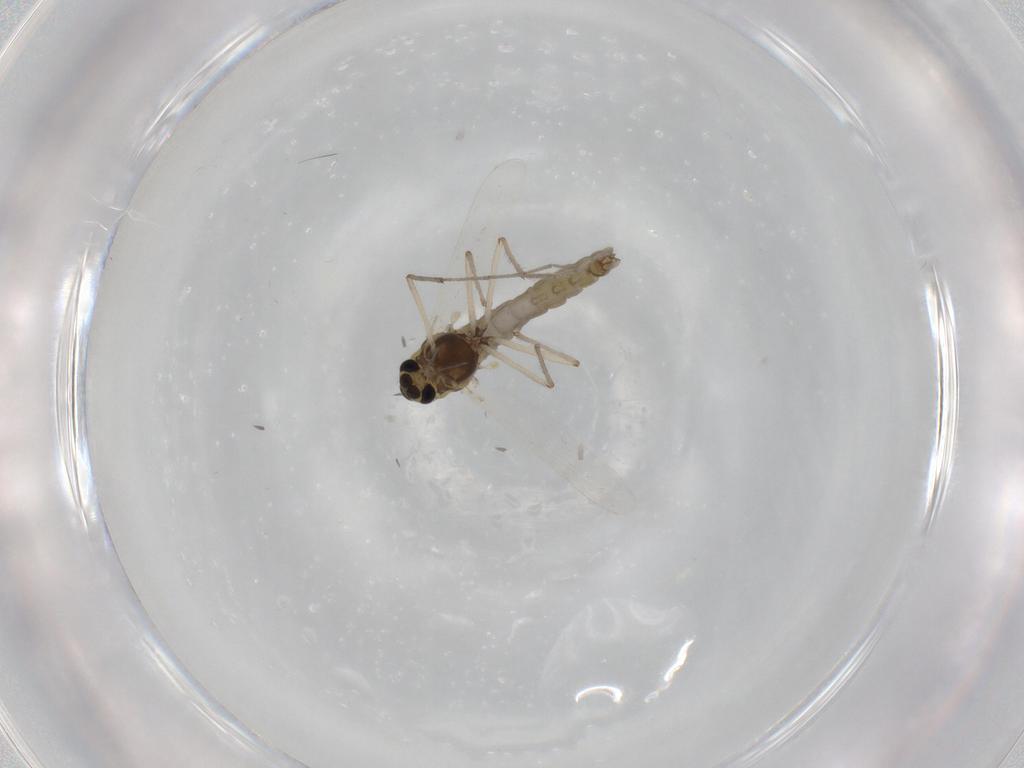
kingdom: Animalia
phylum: Arthropoda
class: Insecta
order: Diptera
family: Chironomidae
